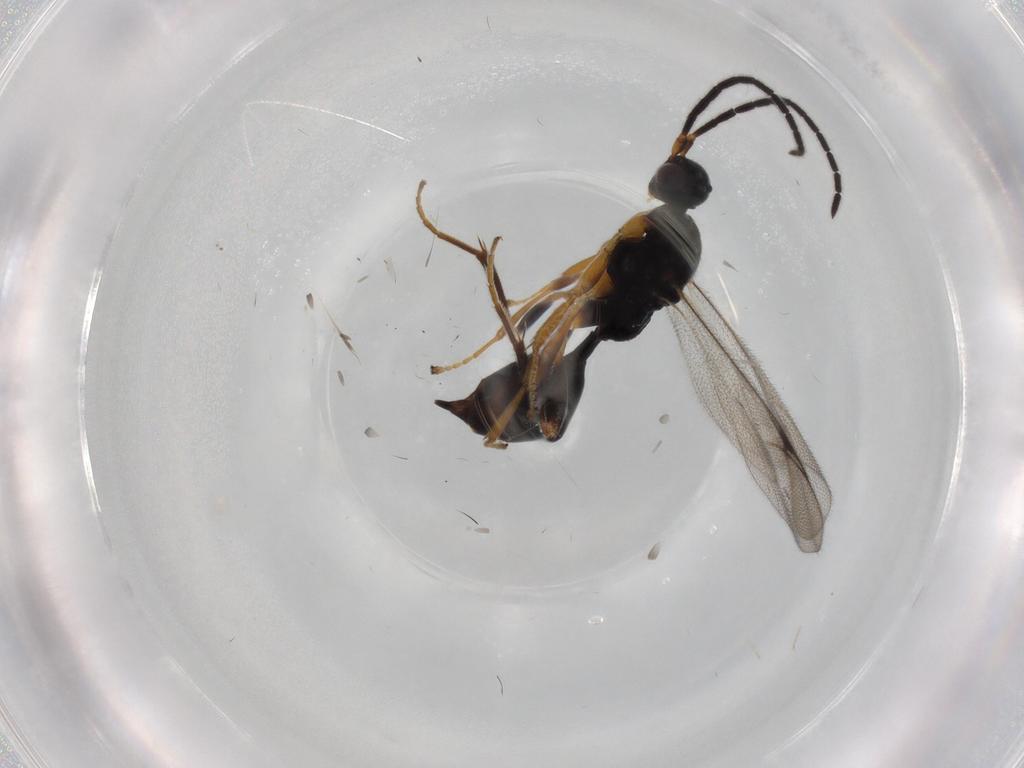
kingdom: Animalia
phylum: Arthropoda
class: Insecta
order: Hymenoptera
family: Proctotrupidae
